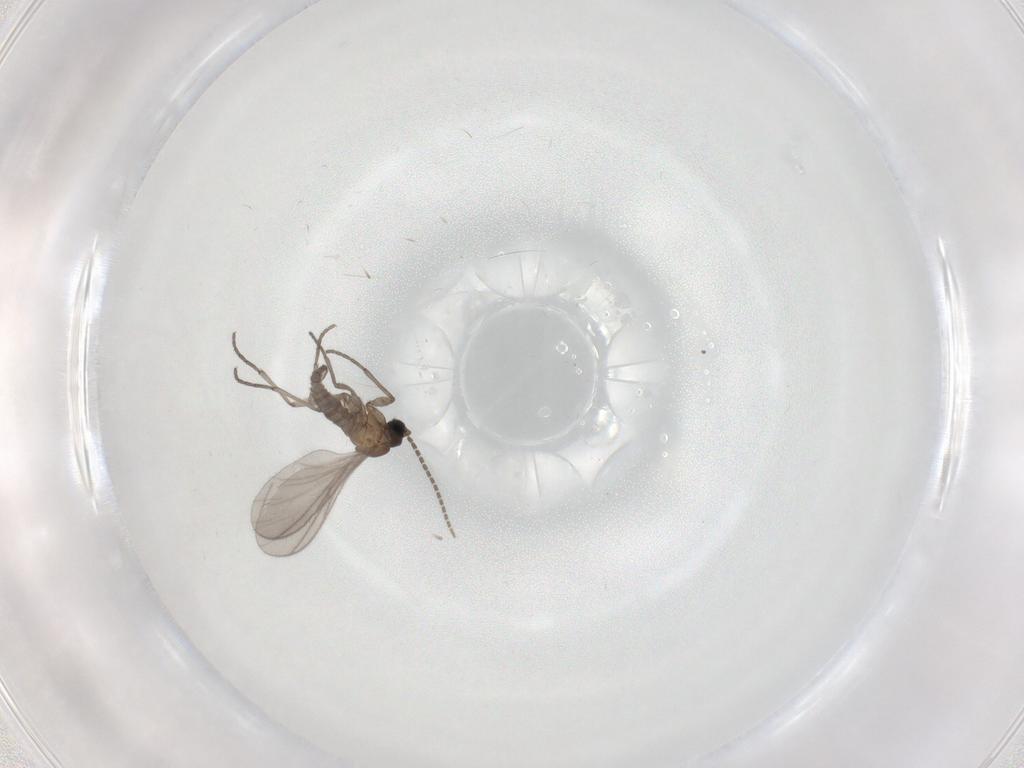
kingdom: Animalia
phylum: Arthropoda
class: Insecta
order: Diptera
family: Sciaridae
